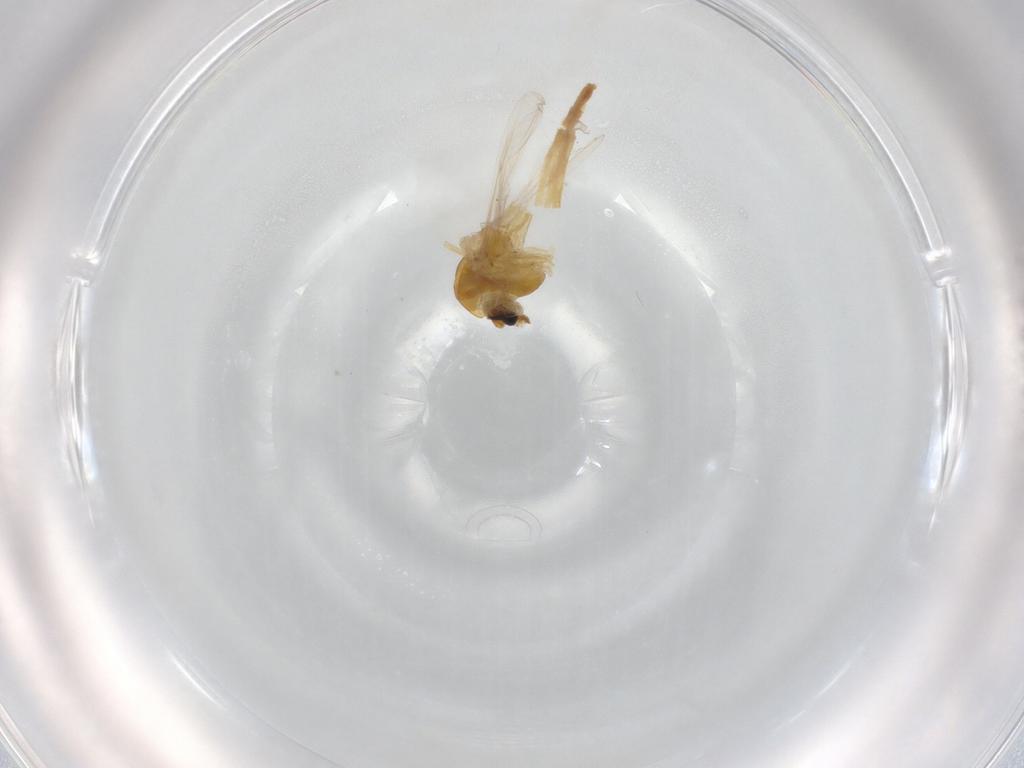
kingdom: Animalia
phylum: Arthropoda
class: Insecta
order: Diptera
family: Chironomidae
